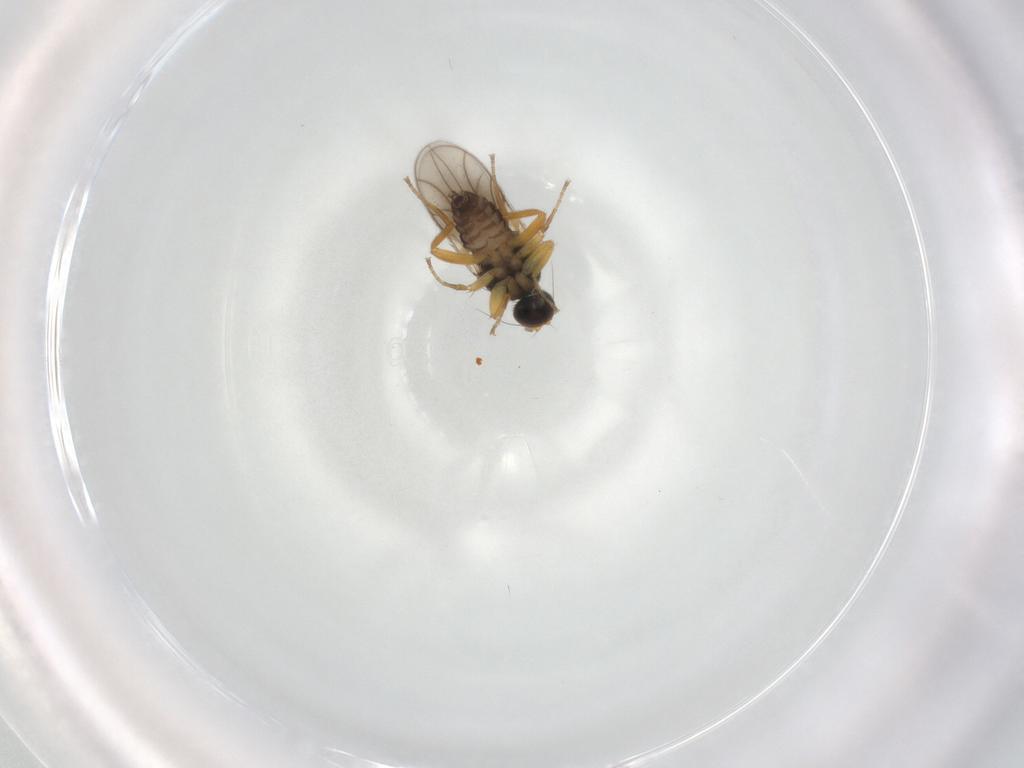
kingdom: Animalia
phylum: Arthropoda
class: Insecta
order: Diptera
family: Hybotidae
